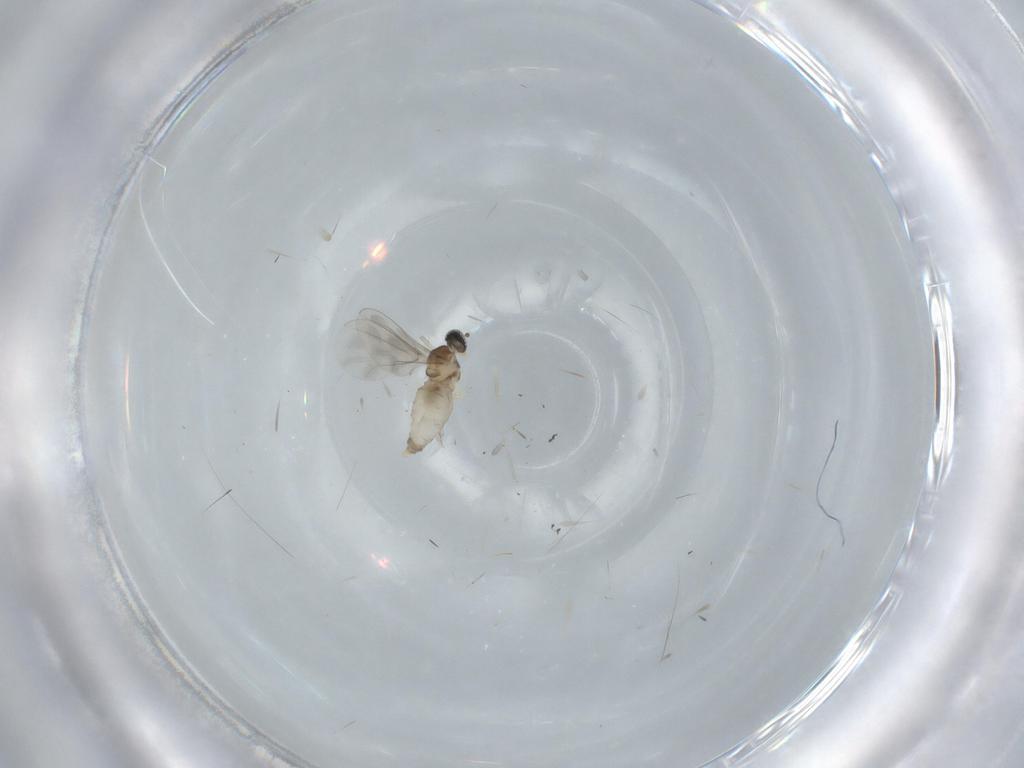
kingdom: Animalia
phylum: Arthropoda
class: Insecta
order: Diptera
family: Cecidomyiidae
